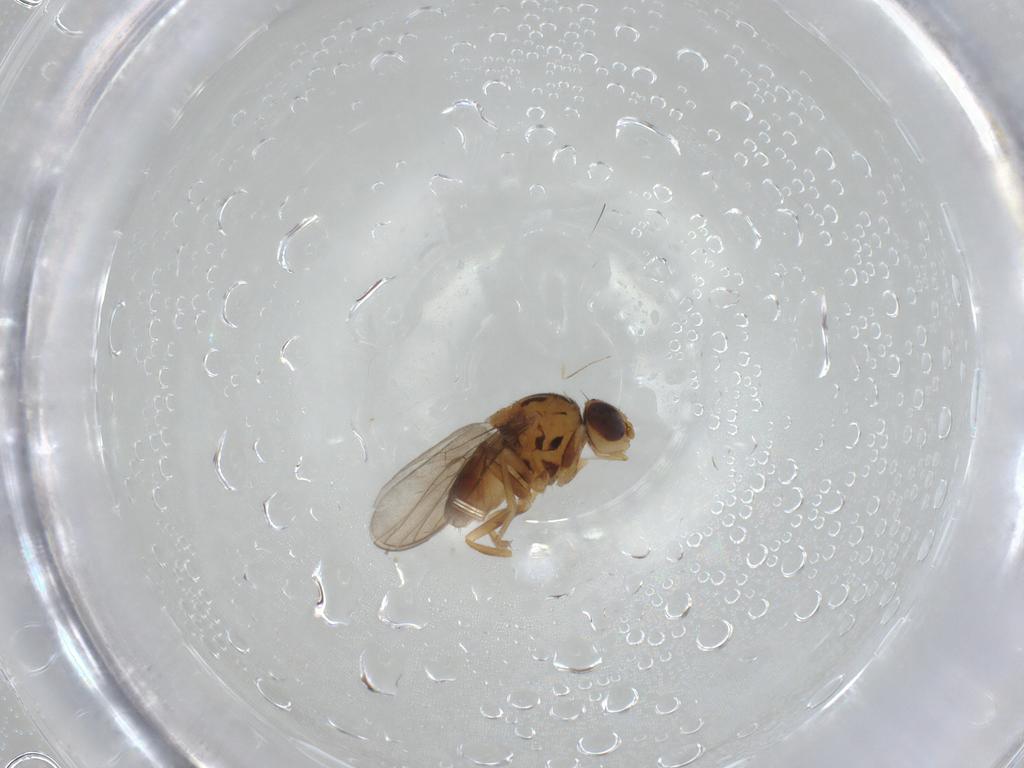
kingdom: Animalia
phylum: Arthropoda
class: Insecta
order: Diptera
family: Chloropidae
